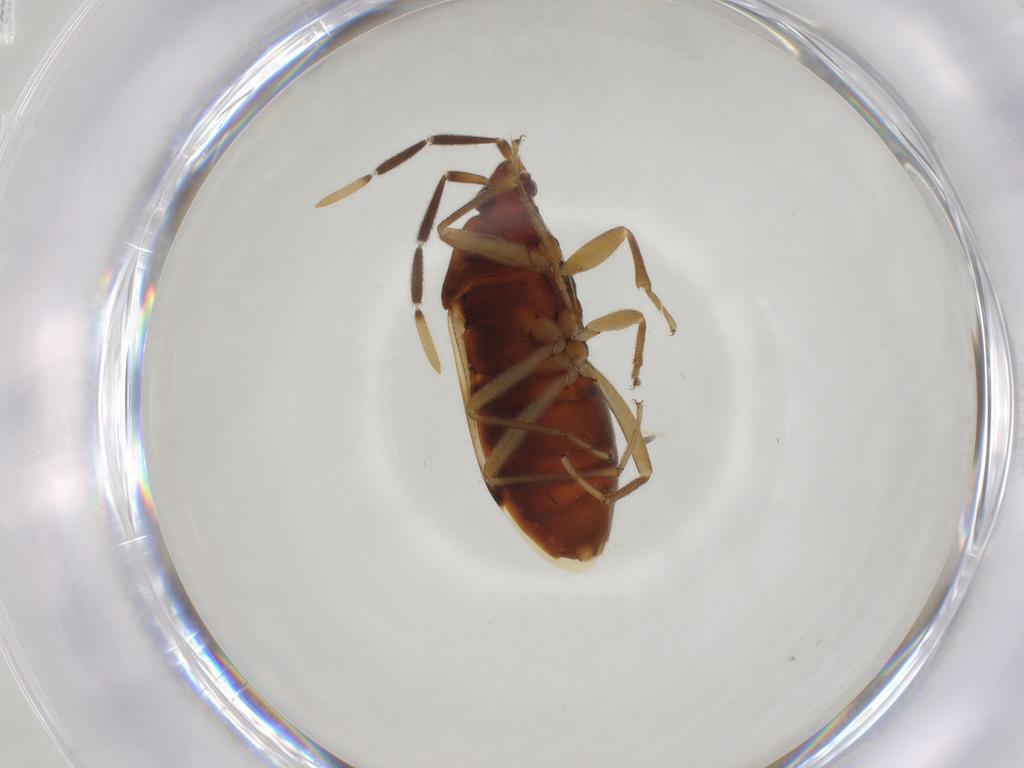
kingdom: Animalia
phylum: Arthropoda
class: Insecta
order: Hemiptera
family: Rhyparochromidae
